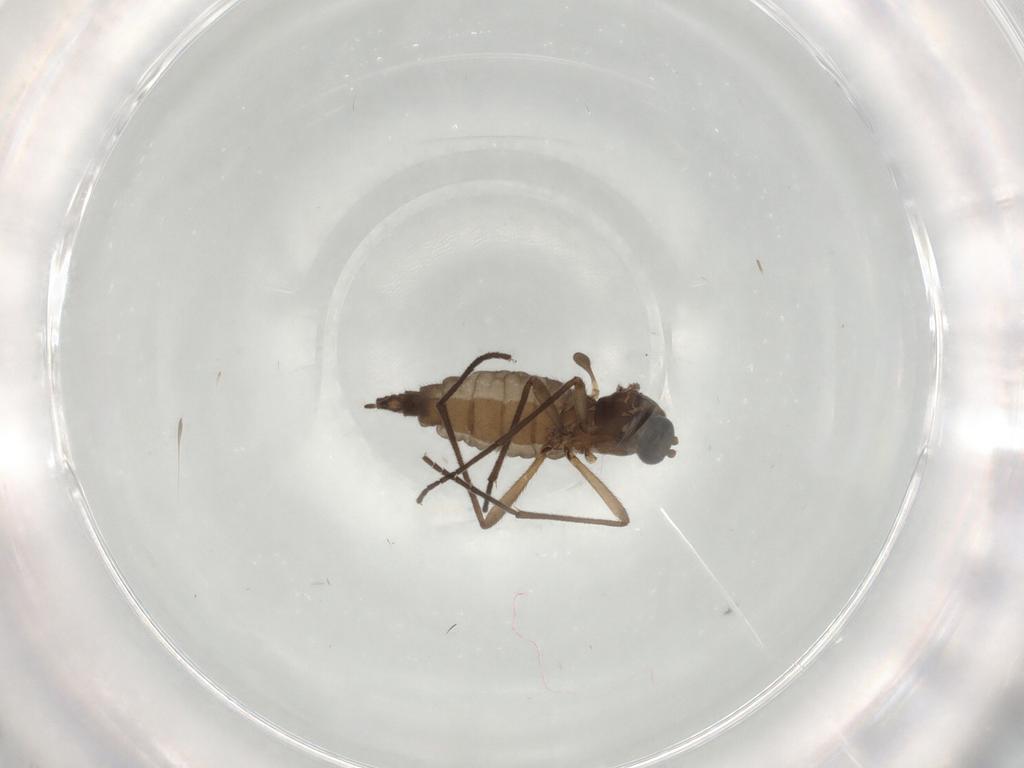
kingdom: Animalia
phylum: Arthropoda
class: Insecta
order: Diptera
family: Sciaridae
